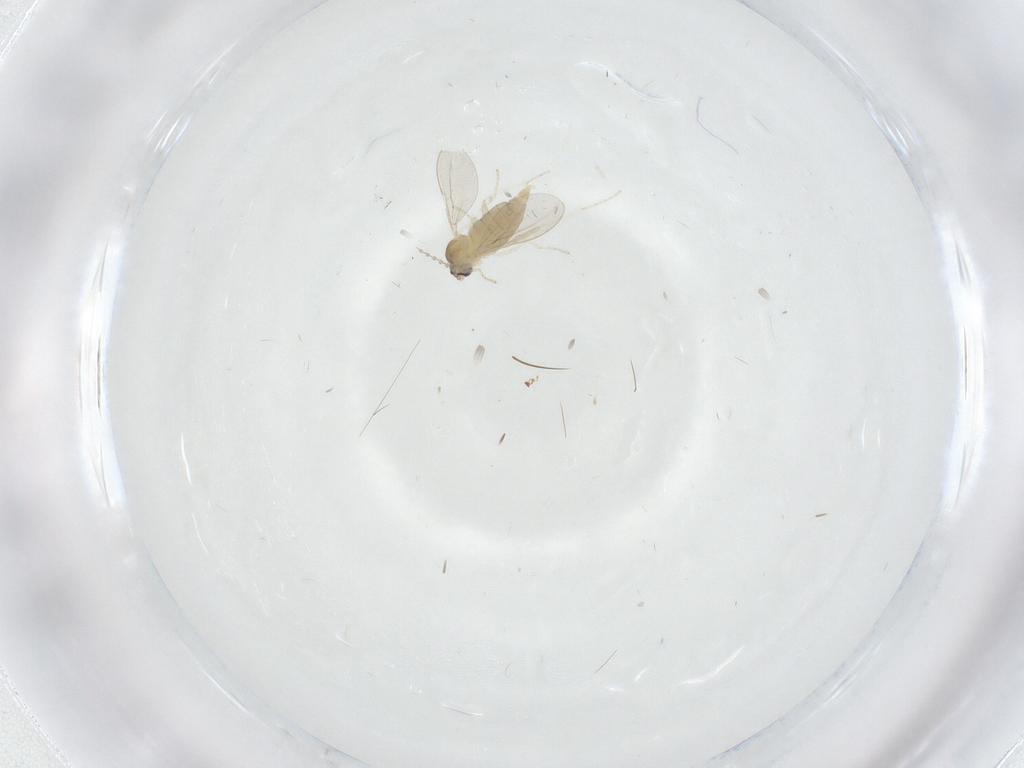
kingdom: Animalia
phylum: Arthropoda
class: Insecta
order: Diptera
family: Cecidomyiidae
